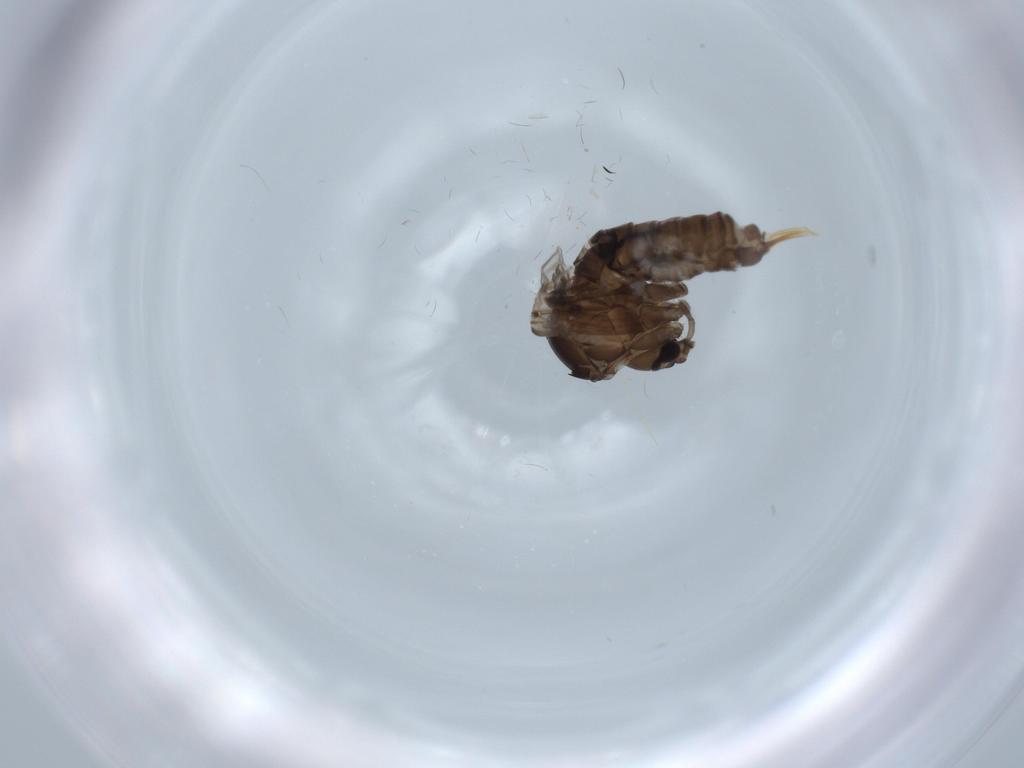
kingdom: Animalia
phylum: Arthropoda
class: Insecta
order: Diptera
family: Psychodidae
